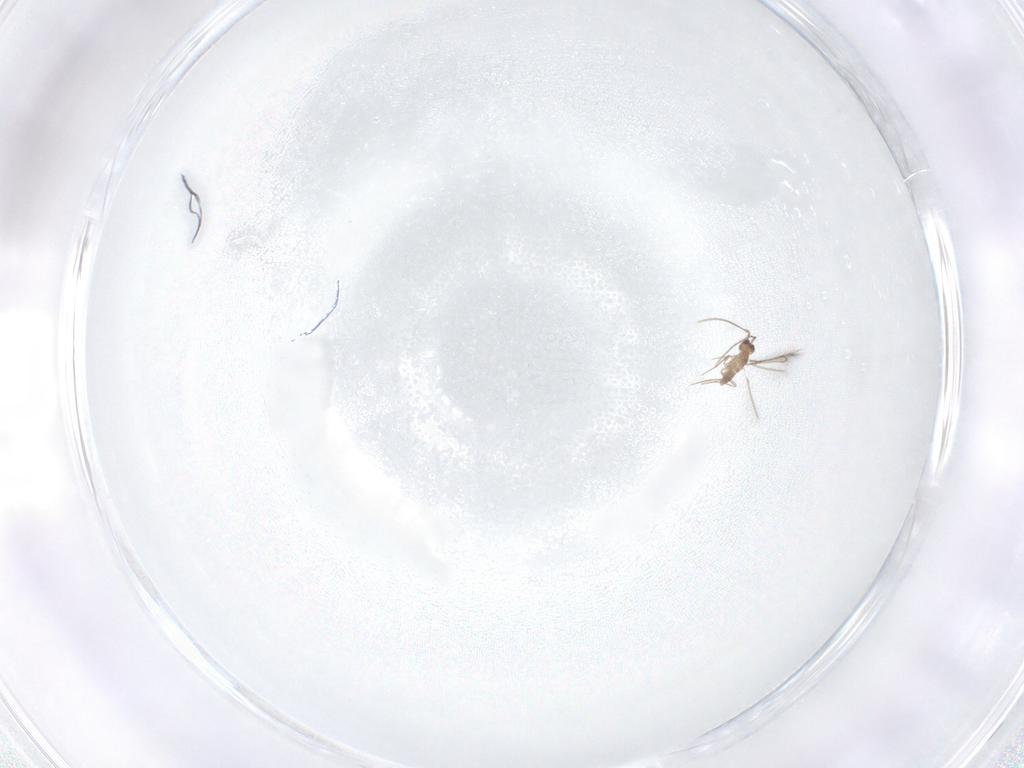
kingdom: Animalia
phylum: Arthropoda
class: Insecta
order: Hymenoptera
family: Mymaridae
